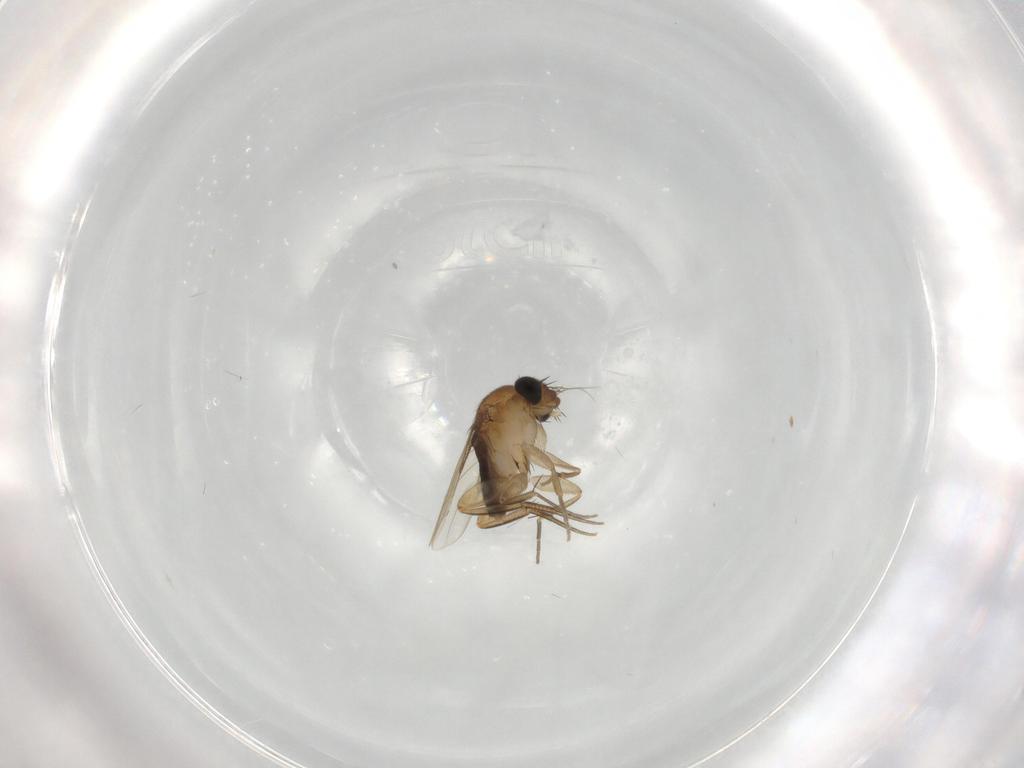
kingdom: Animalia
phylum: Arthropoda
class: Insecta
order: Diptera
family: Phoridae
